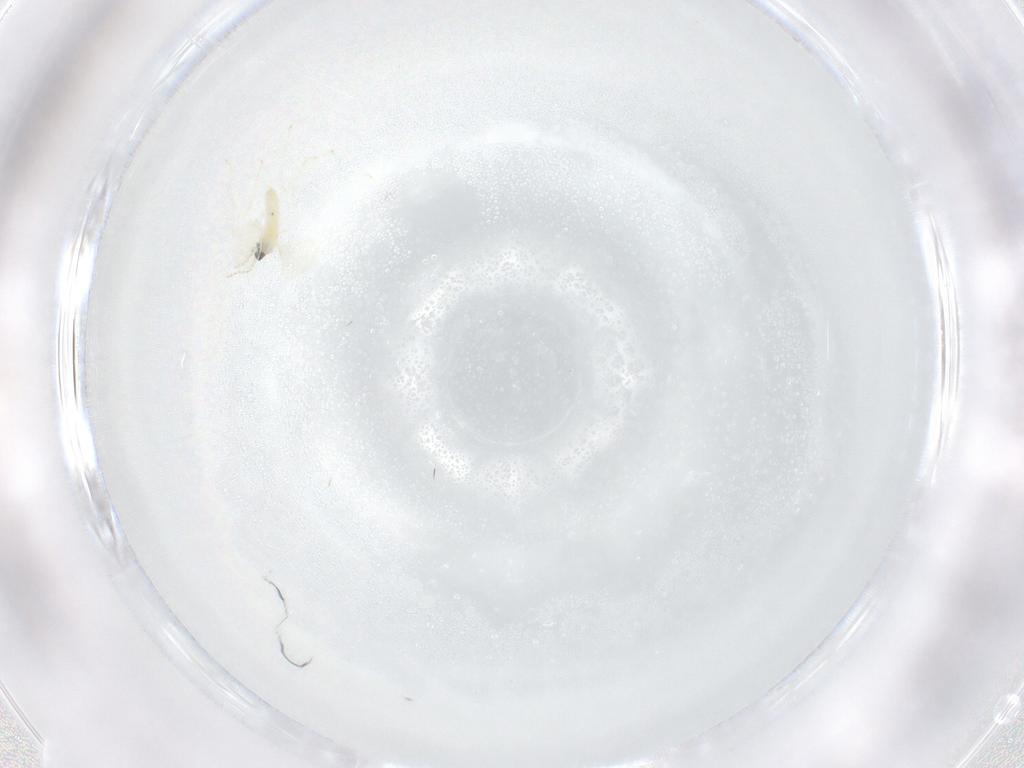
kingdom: Animalia
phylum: Arthropoda
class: Insecta
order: Diptera
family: Cecidomyiidae
